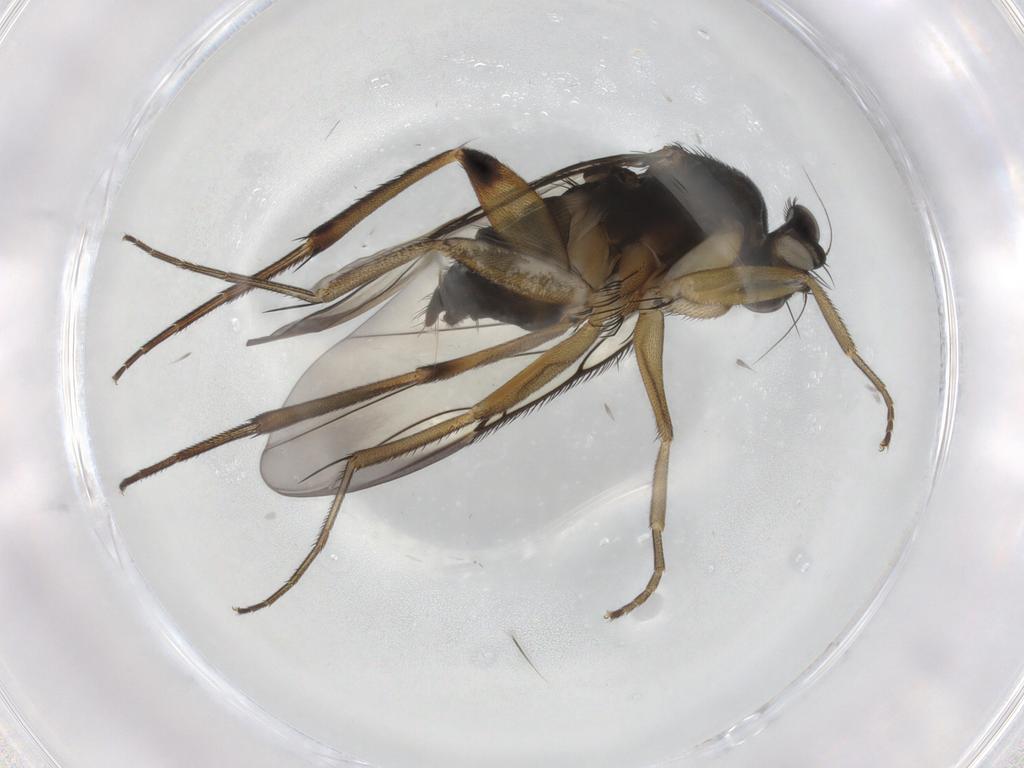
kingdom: Animalia
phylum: Arthropoda
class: Insecta
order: Diptera
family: Phoridae
